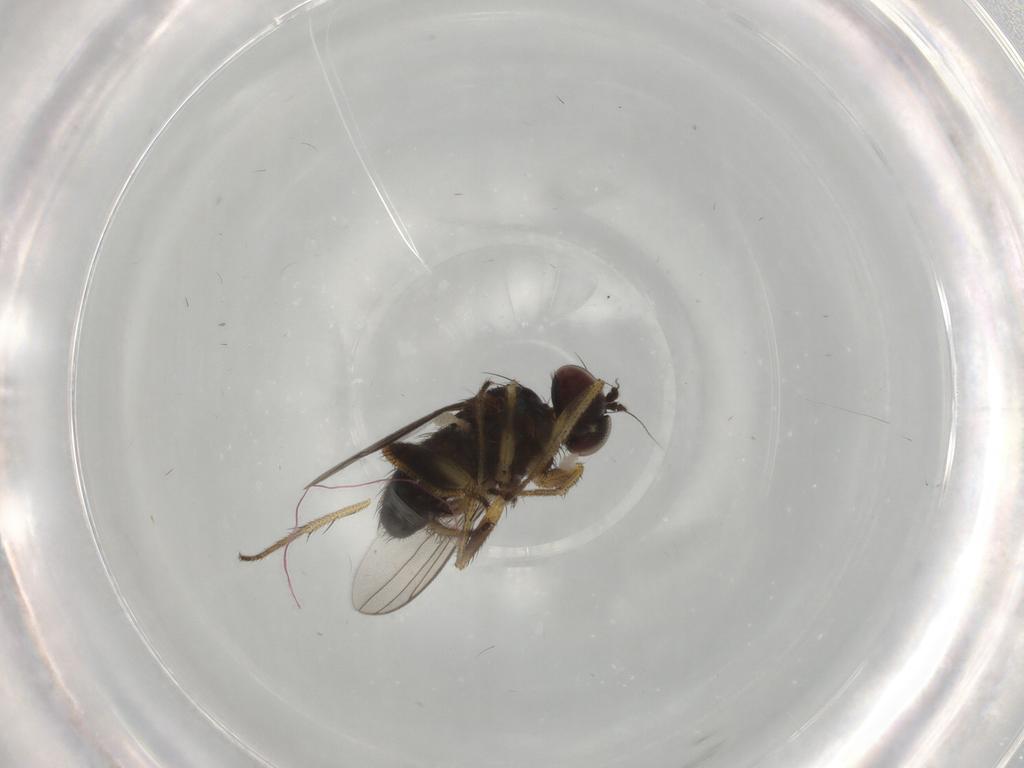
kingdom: Animalia
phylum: Arthropoda
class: Insecta
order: Diptera
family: Dolichopodidae
